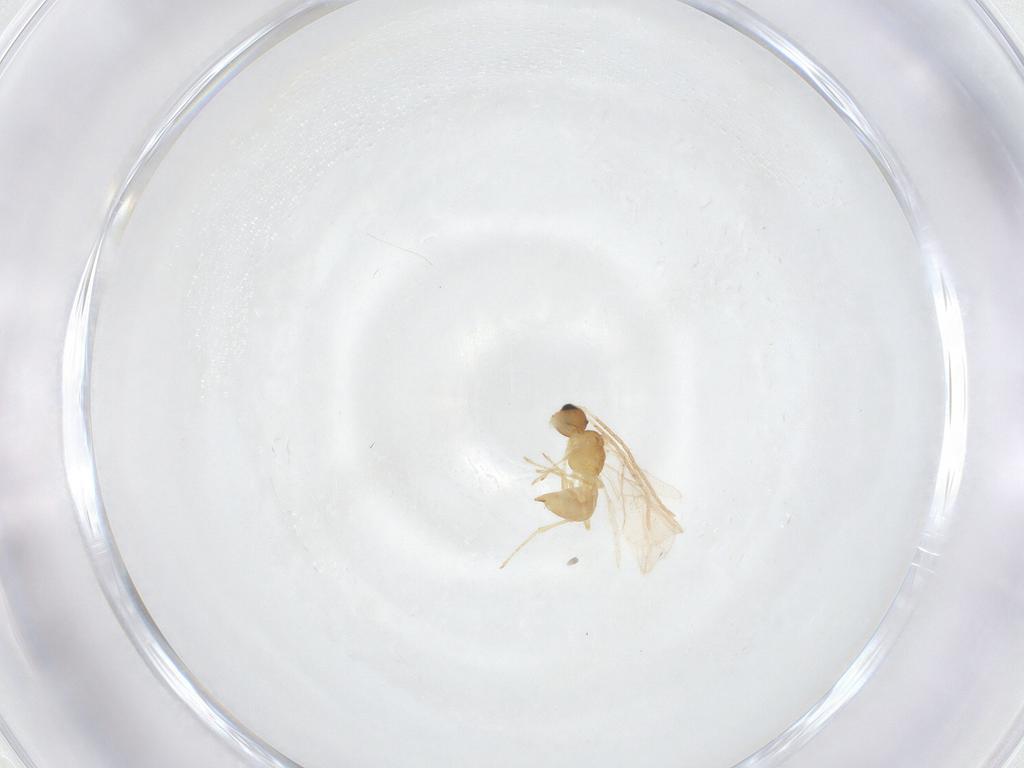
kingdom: Animalia
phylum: Arthropoda
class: Insecta
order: Hymenoptera
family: Braconidae
